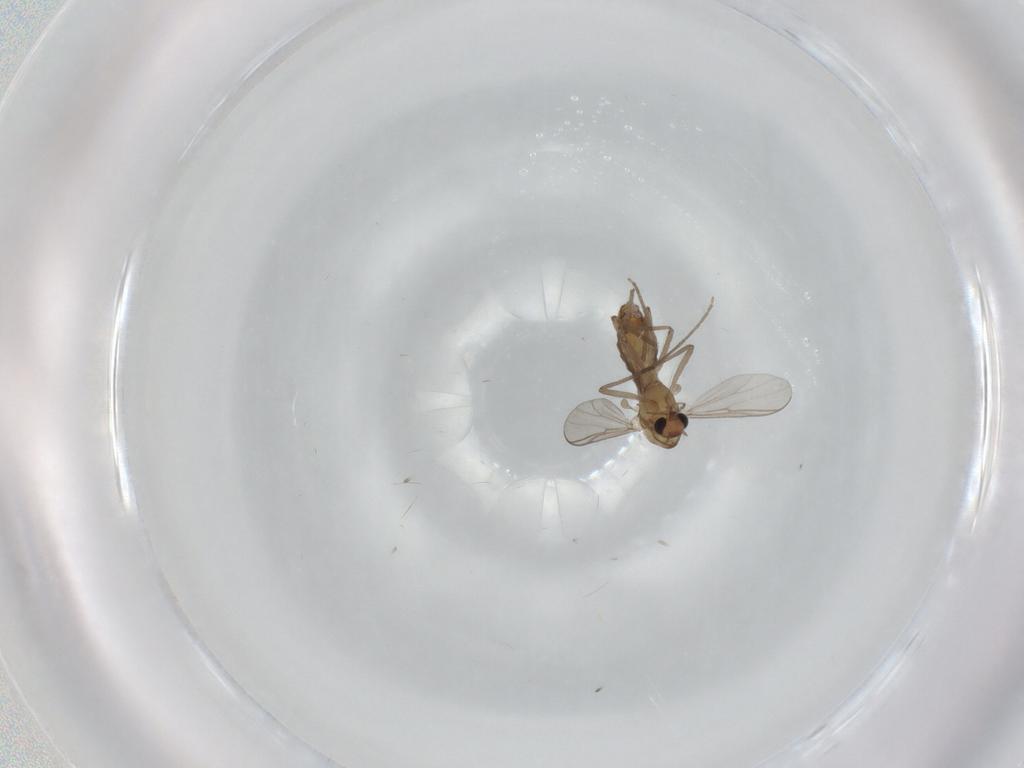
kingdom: Animalia
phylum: Arthropoda
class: Insecta
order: Diptera
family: Chironomidae
